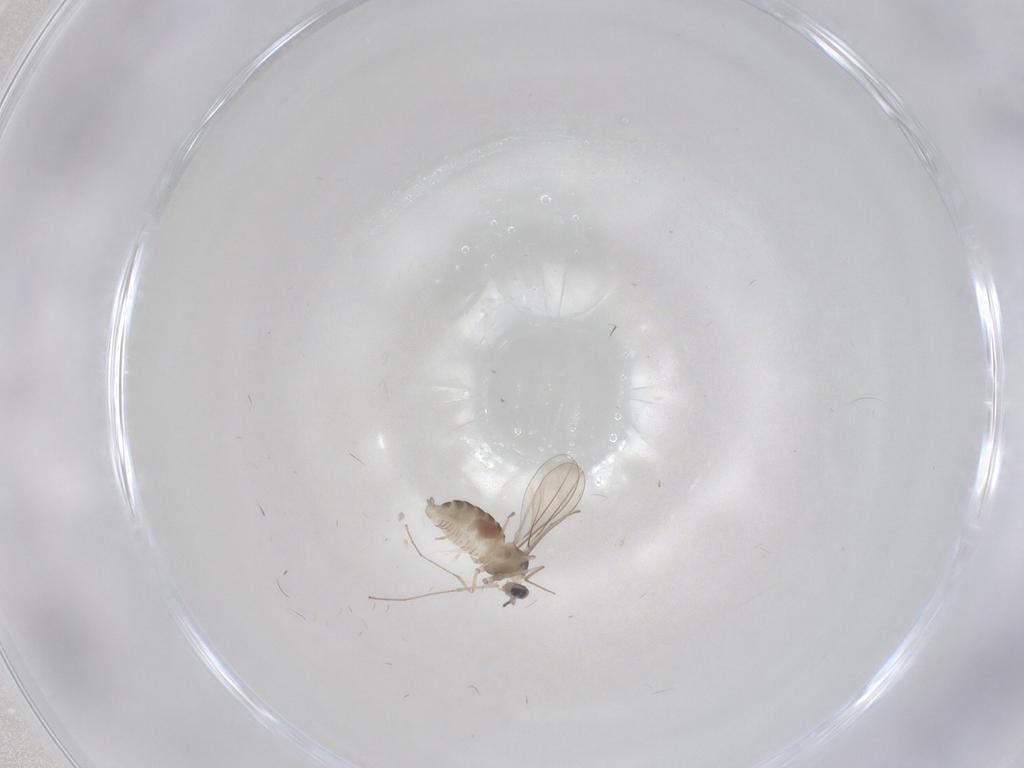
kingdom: Animalia
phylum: Arthropoda
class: Insecta
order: Diptera
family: Cecidomyiidae
